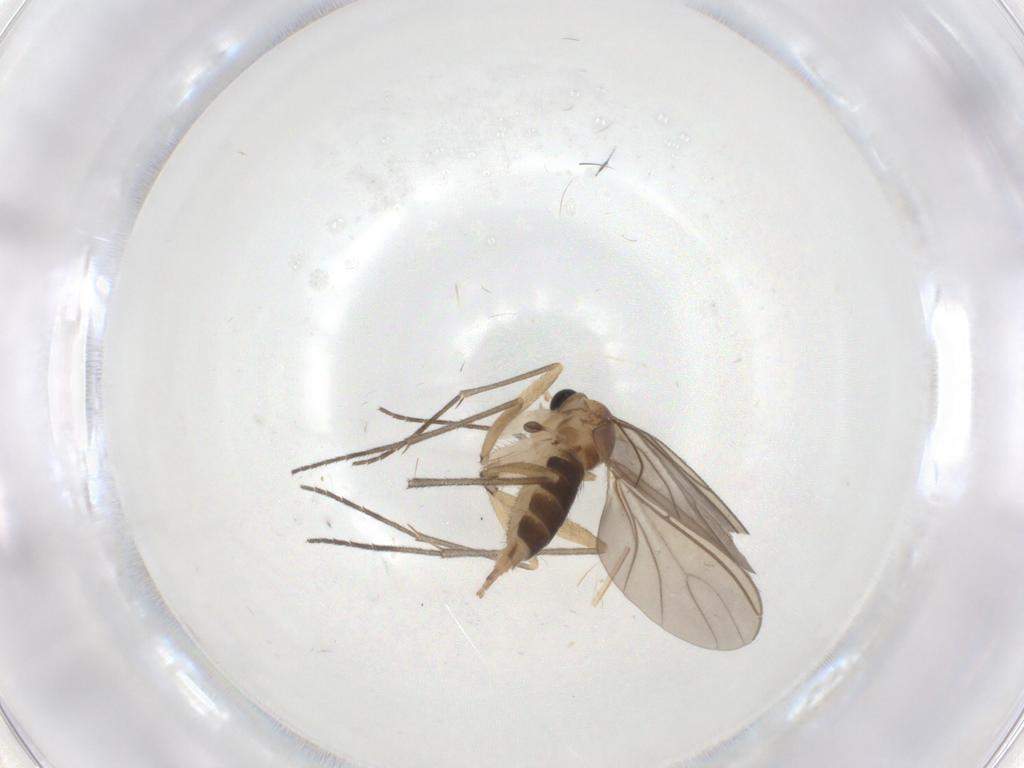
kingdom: Animalia
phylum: Arthropoda
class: Insecta
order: Diptera
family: Sciaridae
